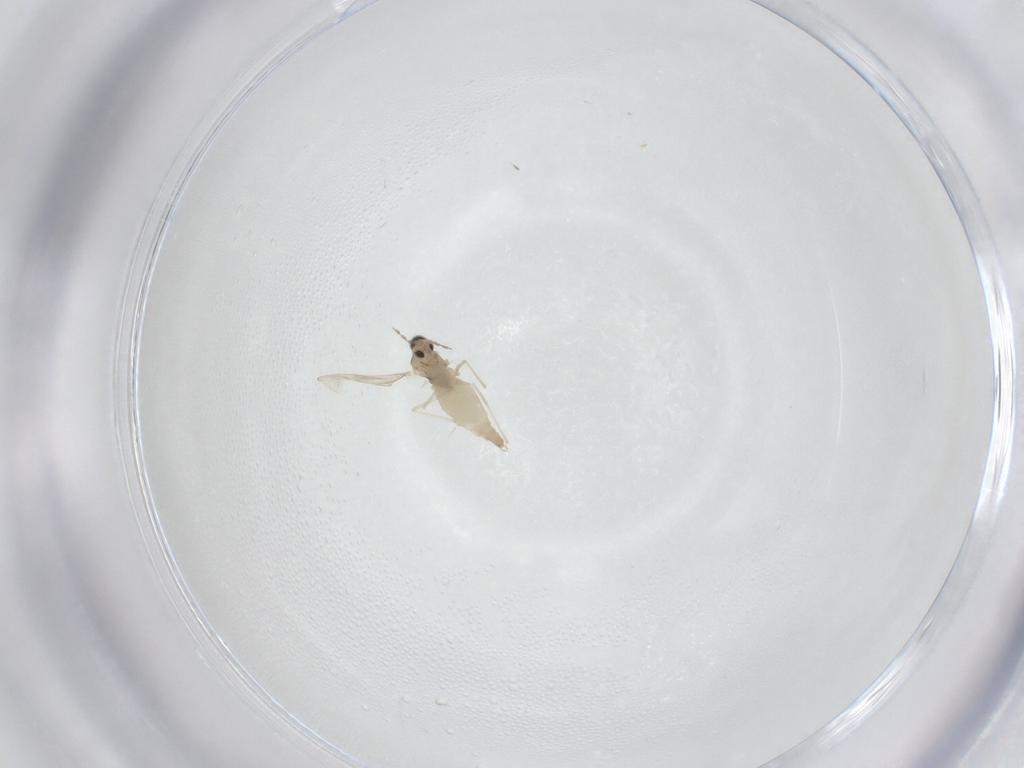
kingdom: Animalia
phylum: Arthropoda
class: Insecta
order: Diptera
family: Cecidomyiidae
